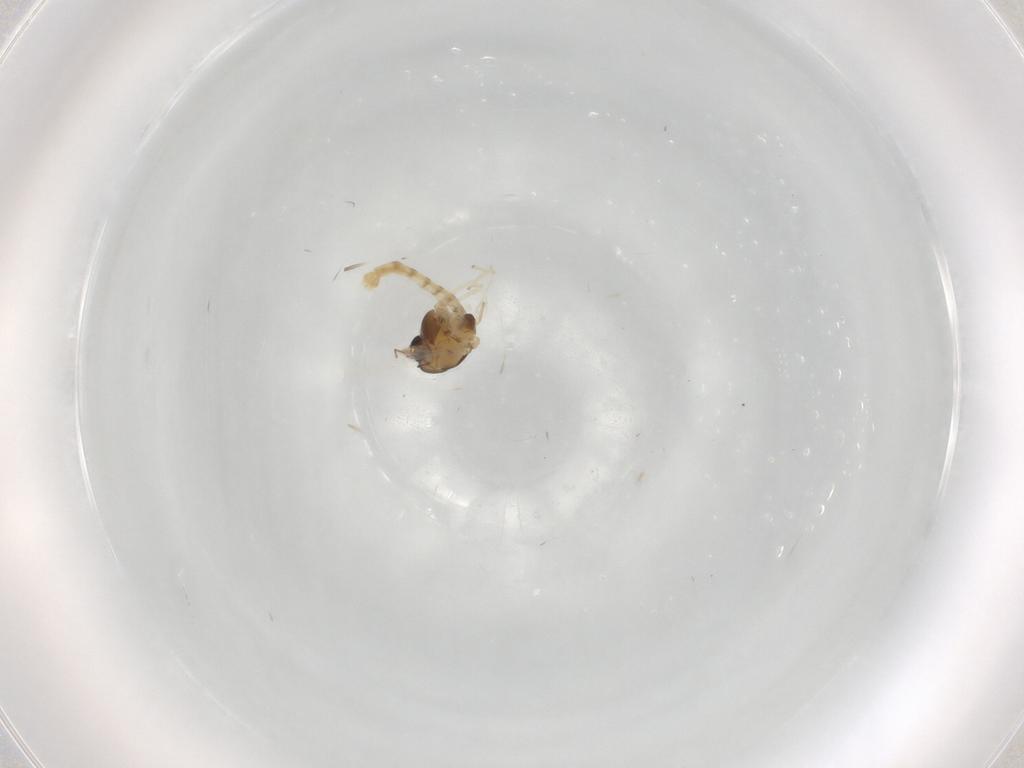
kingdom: Animalia
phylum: Arthropoda
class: Insecta
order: Diptera
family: Chironomidae
